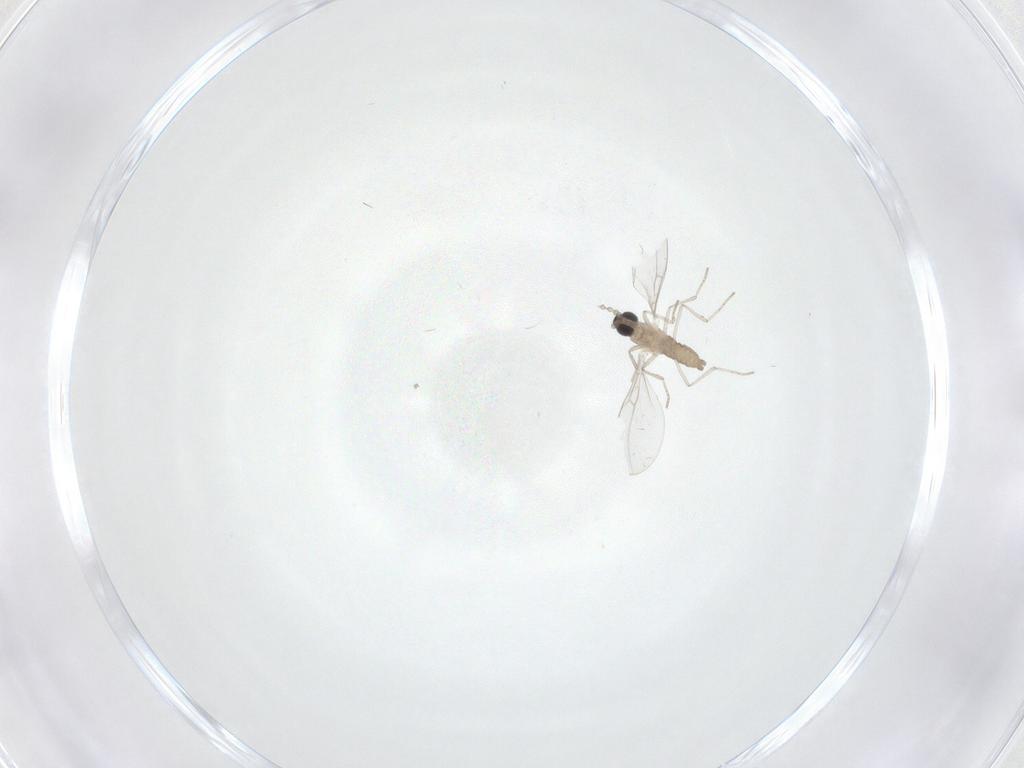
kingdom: Animalia
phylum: Arthropoda
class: Insecta
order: Diptera
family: Cecidomyiidae
